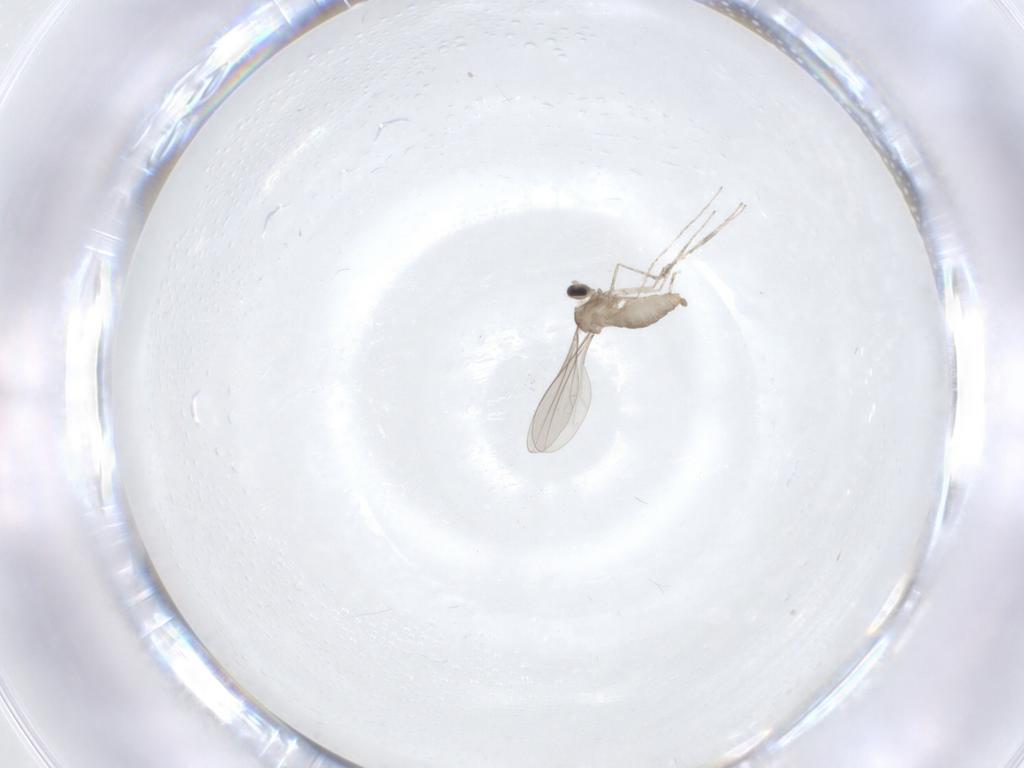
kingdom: Animalia
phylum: Arthropoda
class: Insecta
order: Diptera
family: Cecidomyiidae
